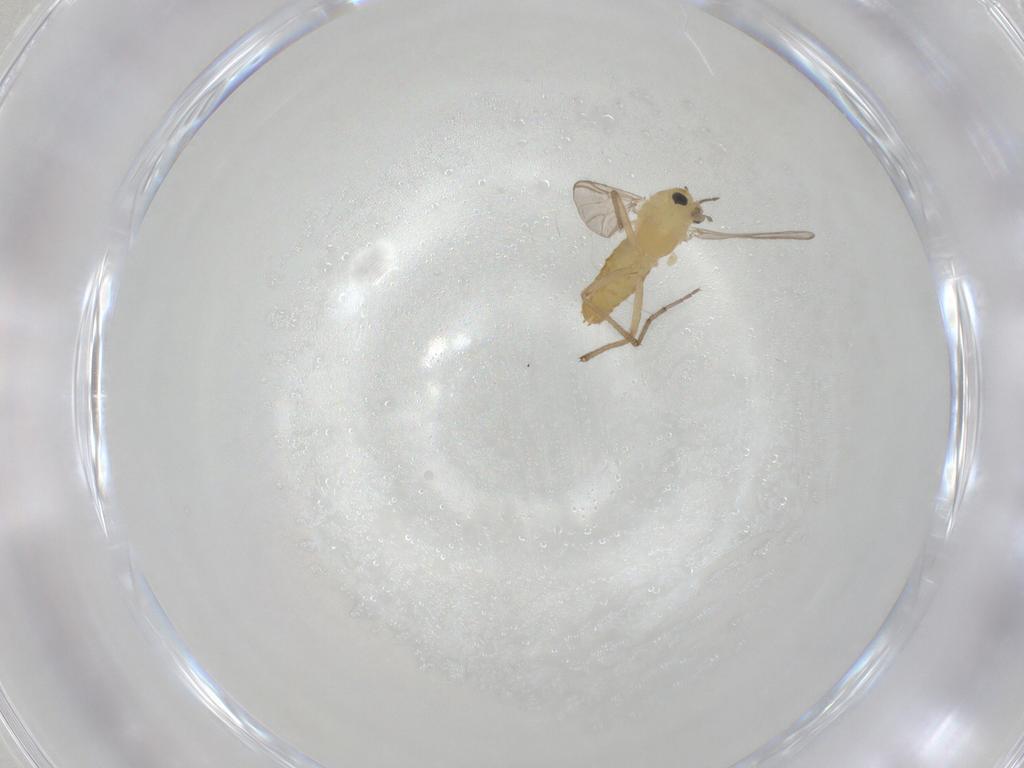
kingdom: Animalia
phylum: Arthropoda
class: Insecta
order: Diptera
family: Chironomidae
